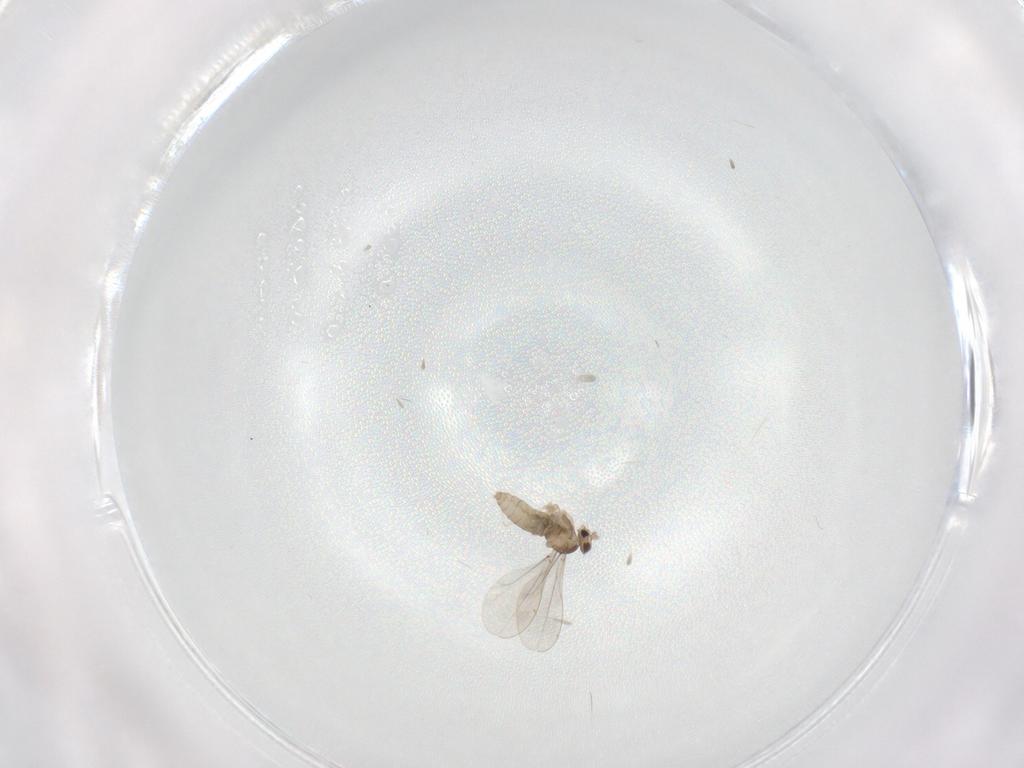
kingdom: Animalia
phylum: Arthropoda
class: Insecta
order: Diptera
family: Cecidomyiidae
